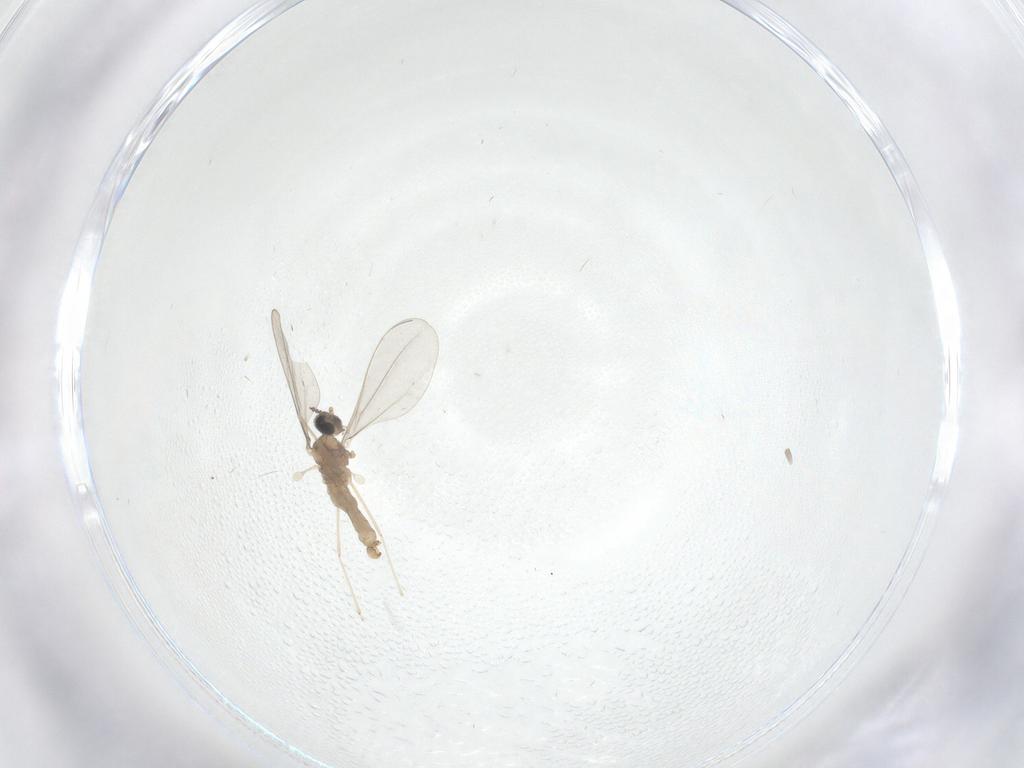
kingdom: Animalia
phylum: Arthropoda
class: Insecta
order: Diptera
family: Cecidomyiidae
